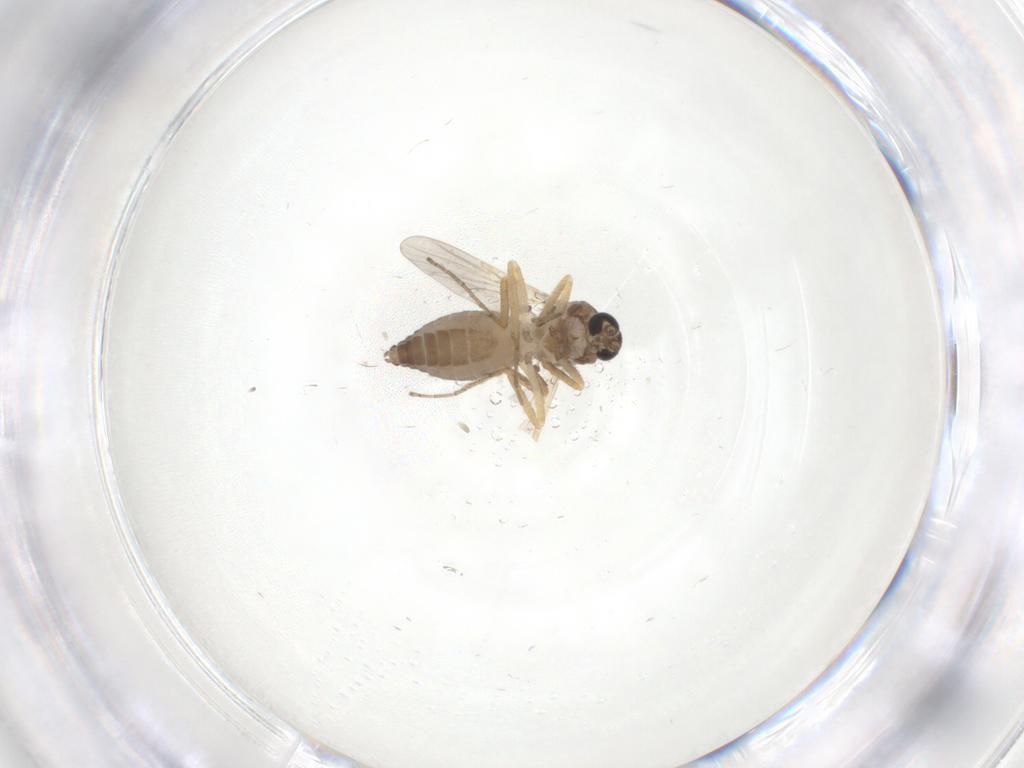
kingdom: Animalia
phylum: Arthropoda
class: Insecta
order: Diptera
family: Ceratopogonidae
